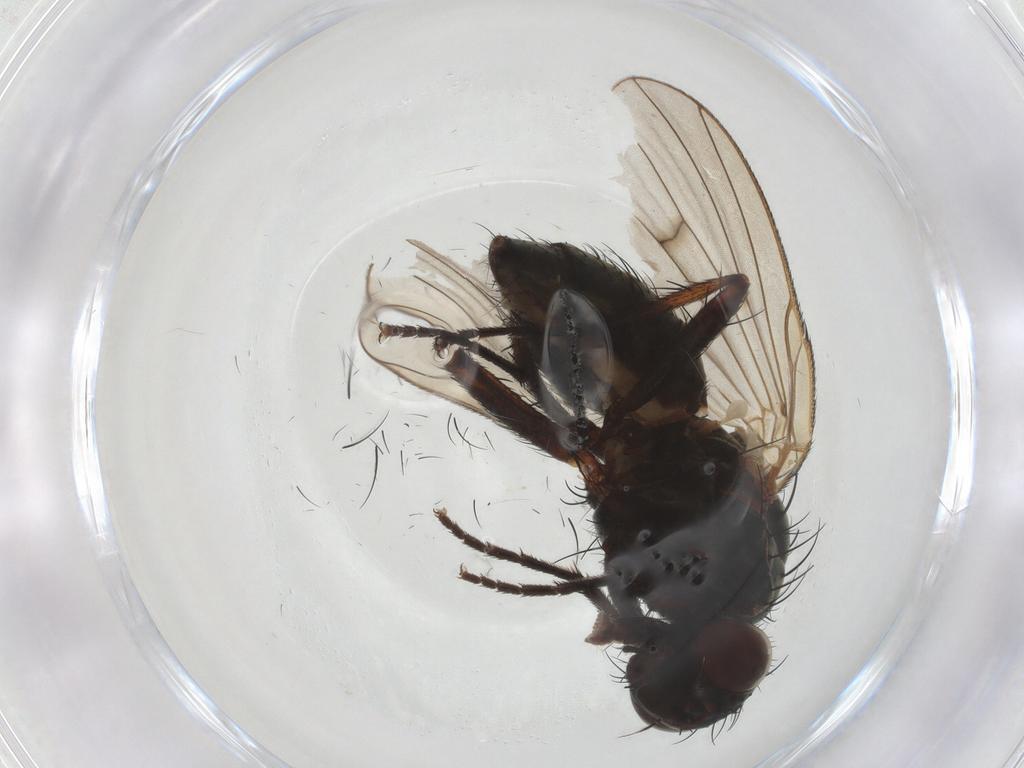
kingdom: Animalia
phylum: Arthropoda
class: Insecta
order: Diptera
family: Anthomyiidae
